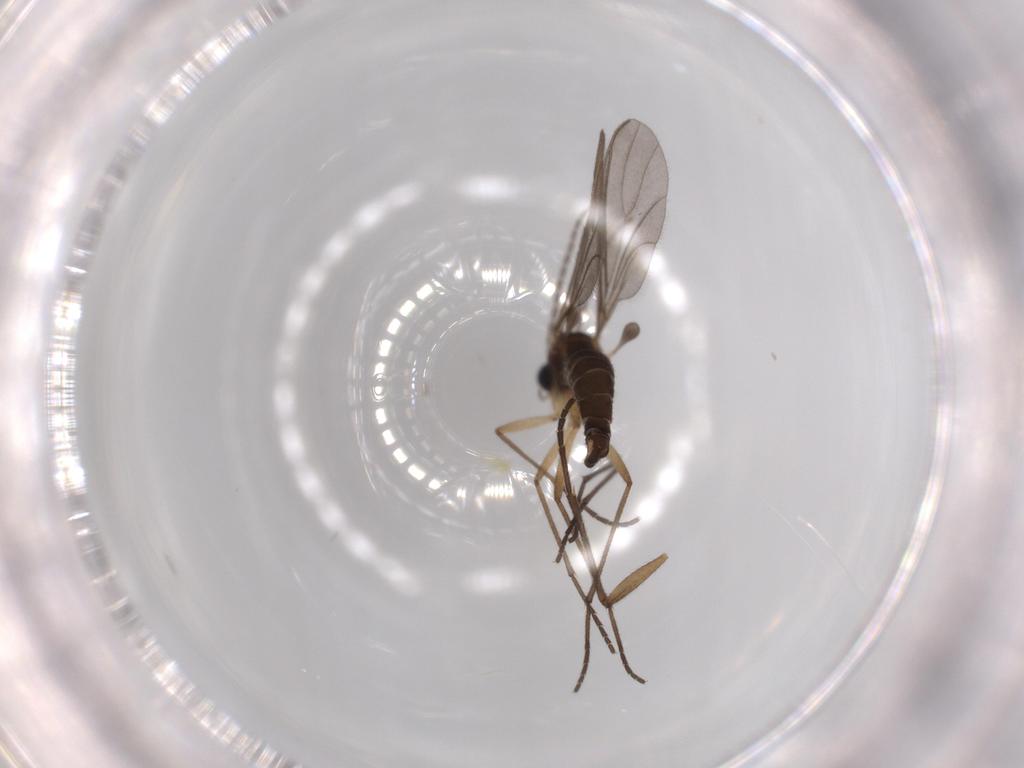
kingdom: Animalia
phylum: Arthropoda
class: Insecta
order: Diptera
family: Sciaridae
